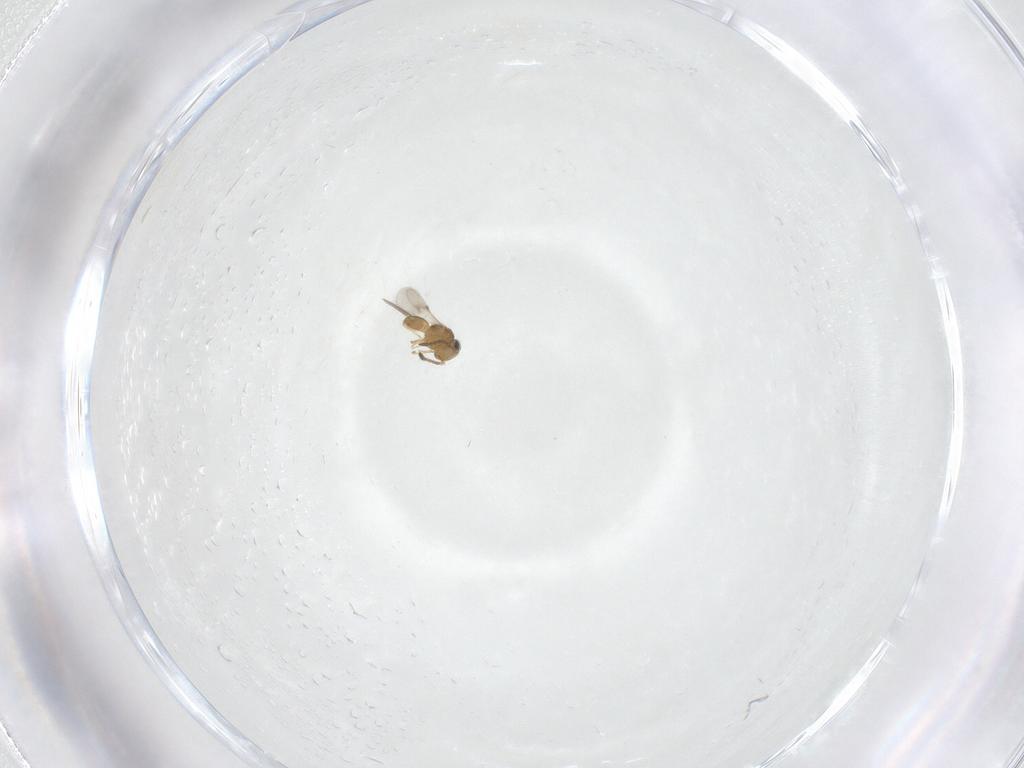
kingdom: Animalia
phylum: Arthropoda
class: Insecta
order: Hymenoptera
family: Scelionidae
